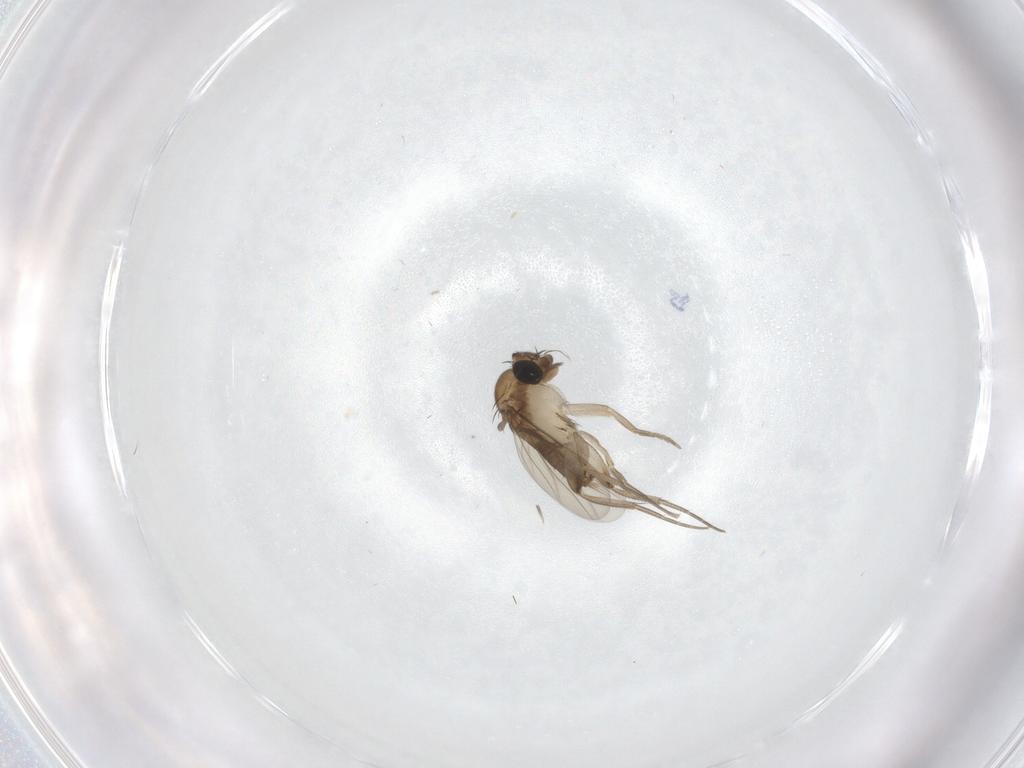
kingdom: Animalia
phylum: Arthropoda
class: Insecta
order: Diptera
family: Phoridae
